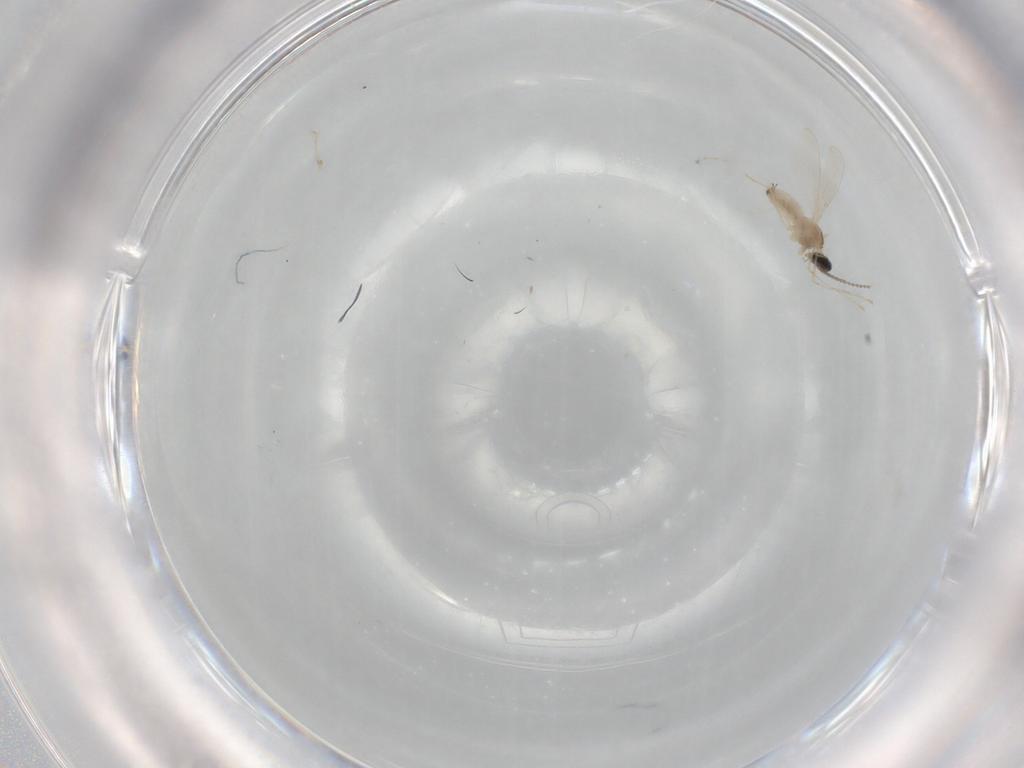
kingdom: Animalia
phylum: Arthropoda
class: Insecta
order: Diptera
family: Cecidomyiidae
